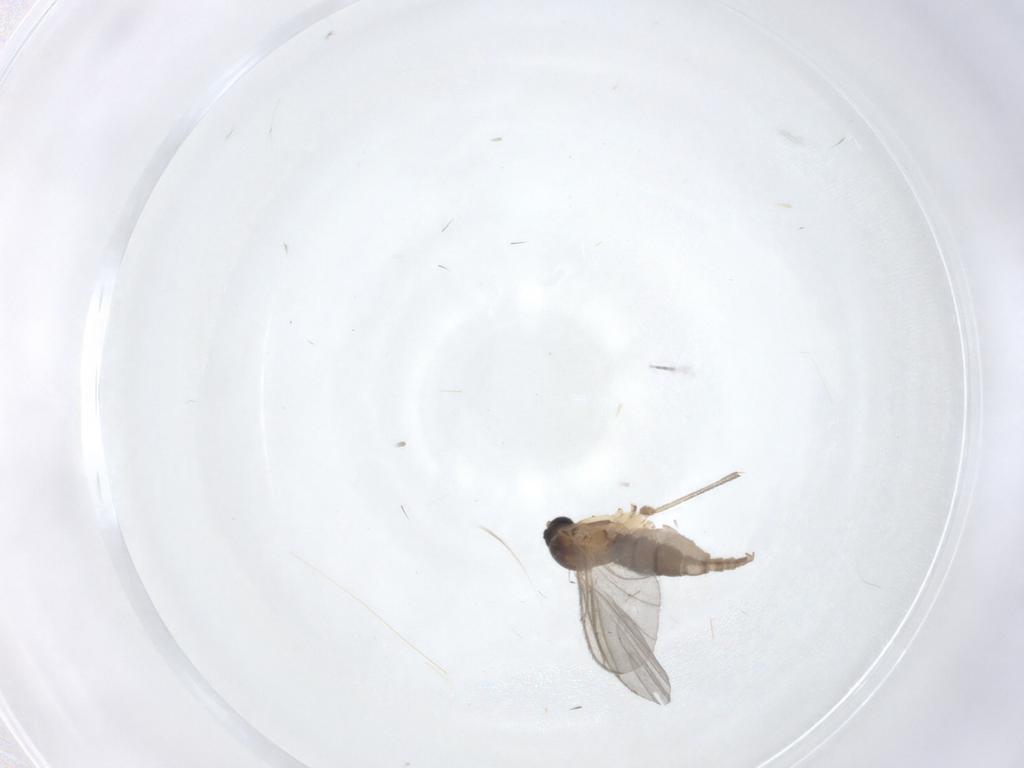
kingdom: Animalia
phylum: Arthropoda
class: Insecta
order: Diptera
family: Sciaridae
